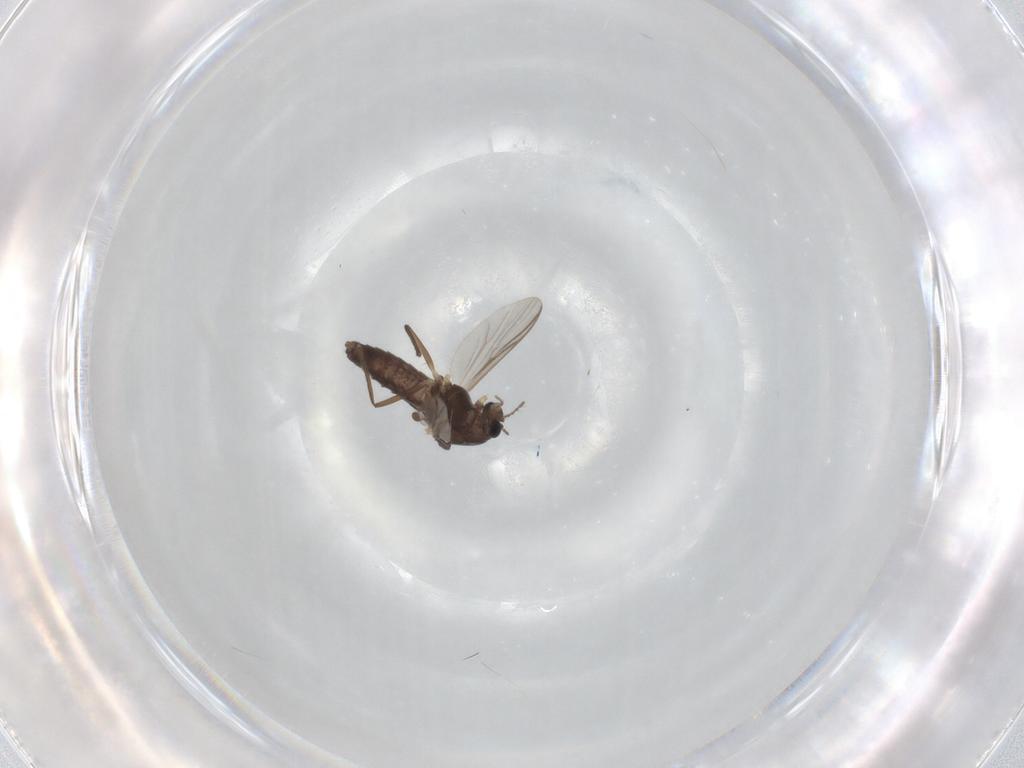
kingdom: Animalia
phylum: Arthropoda
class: Insecta
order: Diptera
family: Chironomidae
